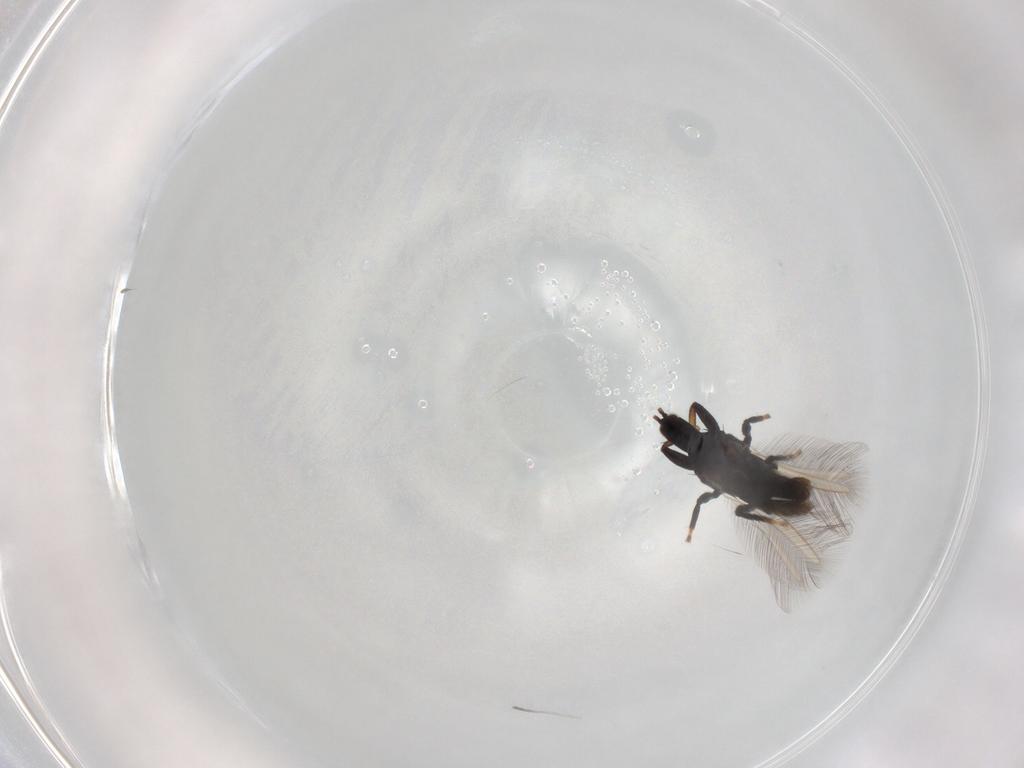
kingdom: Animalia
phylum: Arthropoda
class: Insecta
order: Thysanoptera
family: Phlaeothripidae
